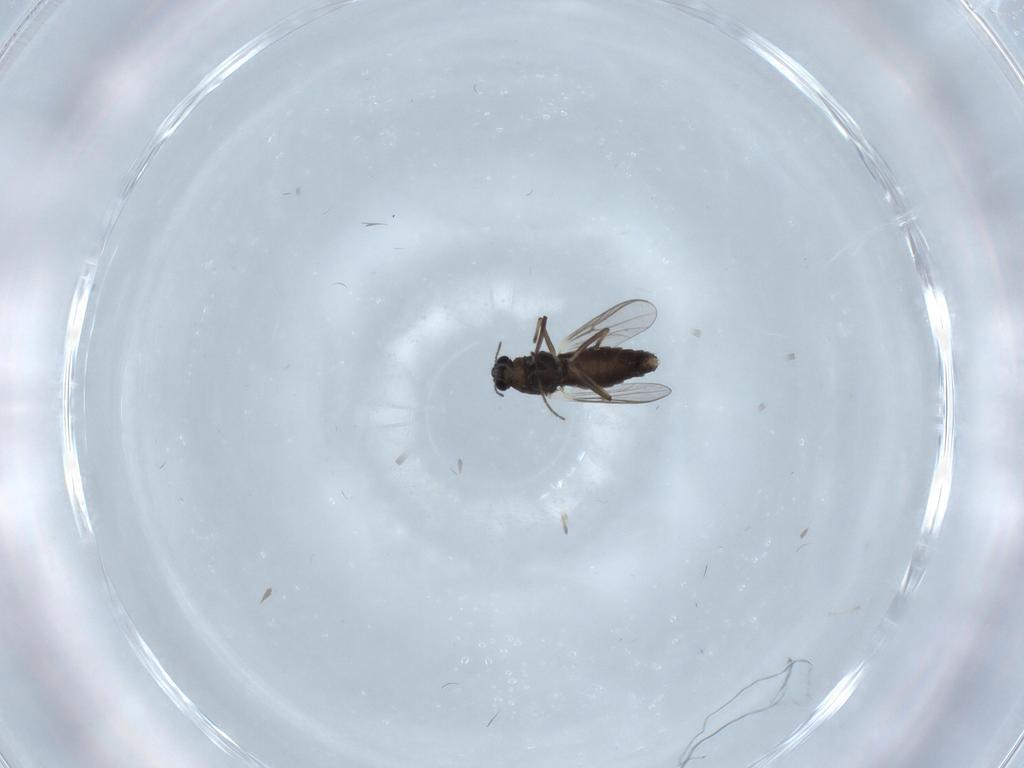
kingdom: Animalia
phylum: Arthropoda
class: Insecta
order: Diptera
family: Chironomidae
